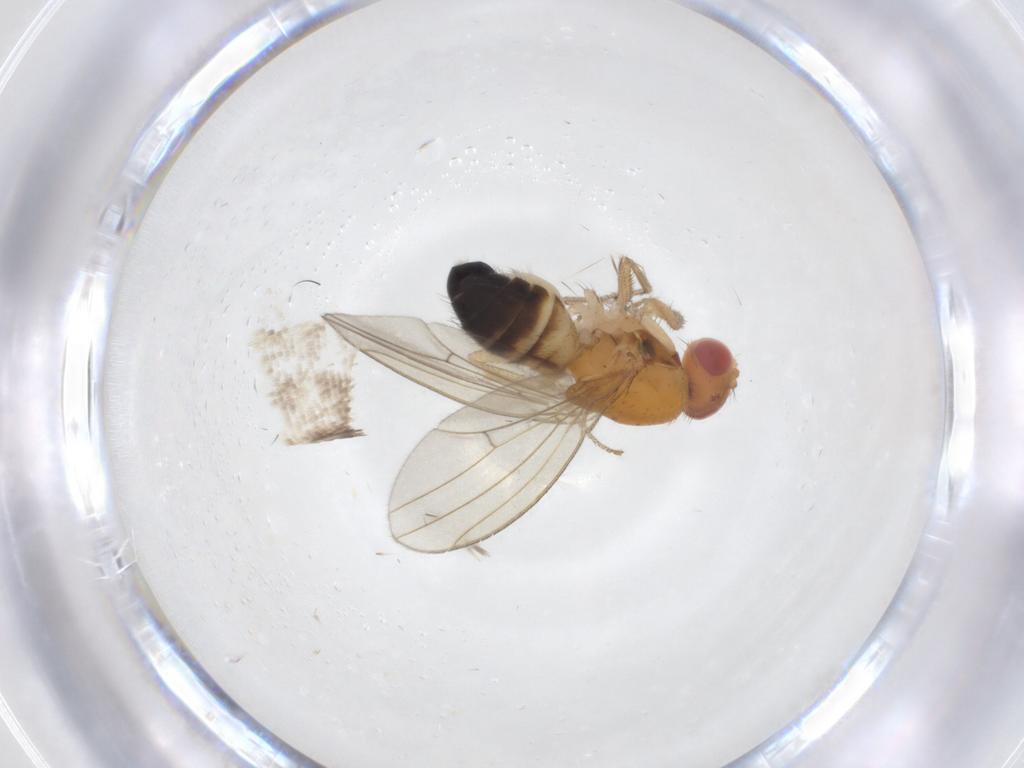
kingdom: Animalia
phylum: Arthropoda
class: Insecta
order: Diptera
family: Drosophilidae
